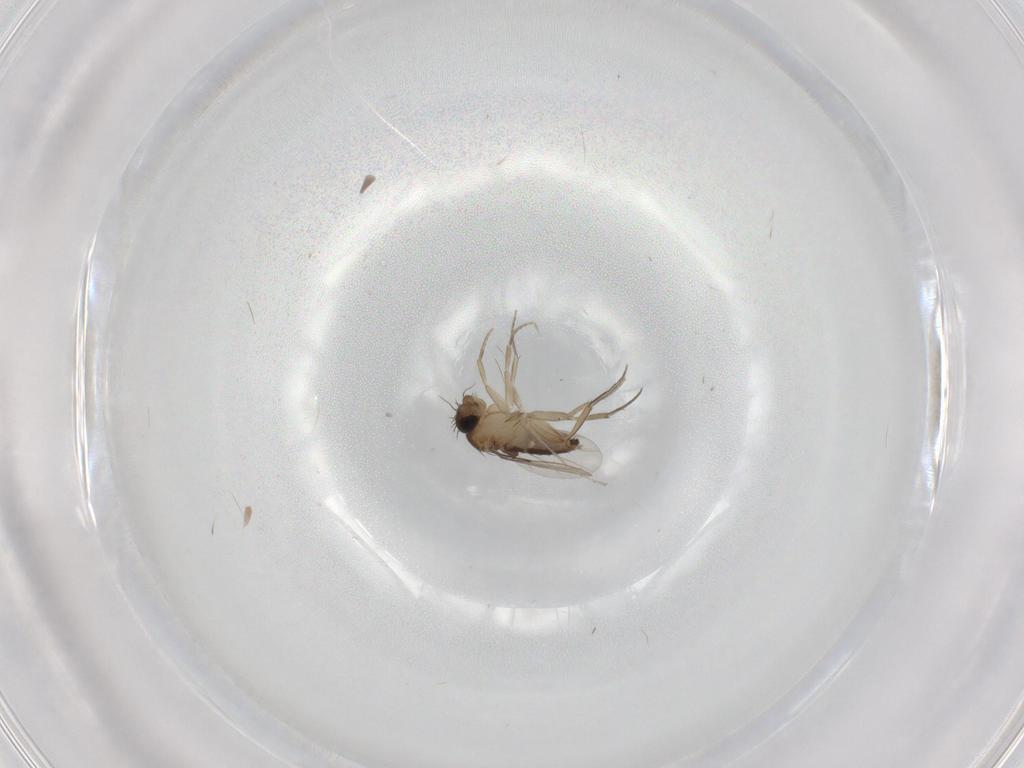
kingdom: Animalia
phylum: Arthropoda
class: Insecta
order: Diptera
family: Phoridae
